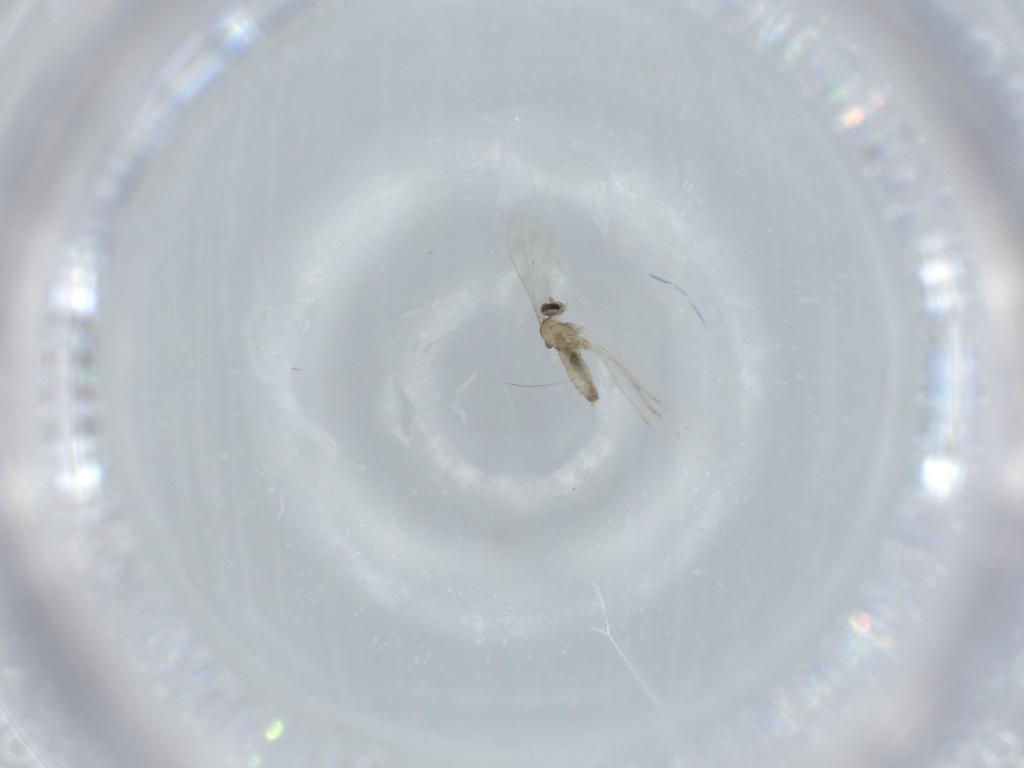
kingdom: Animalia
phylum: Arthropoda
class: Insecta
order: Diptera
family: Cecidomyiidae
